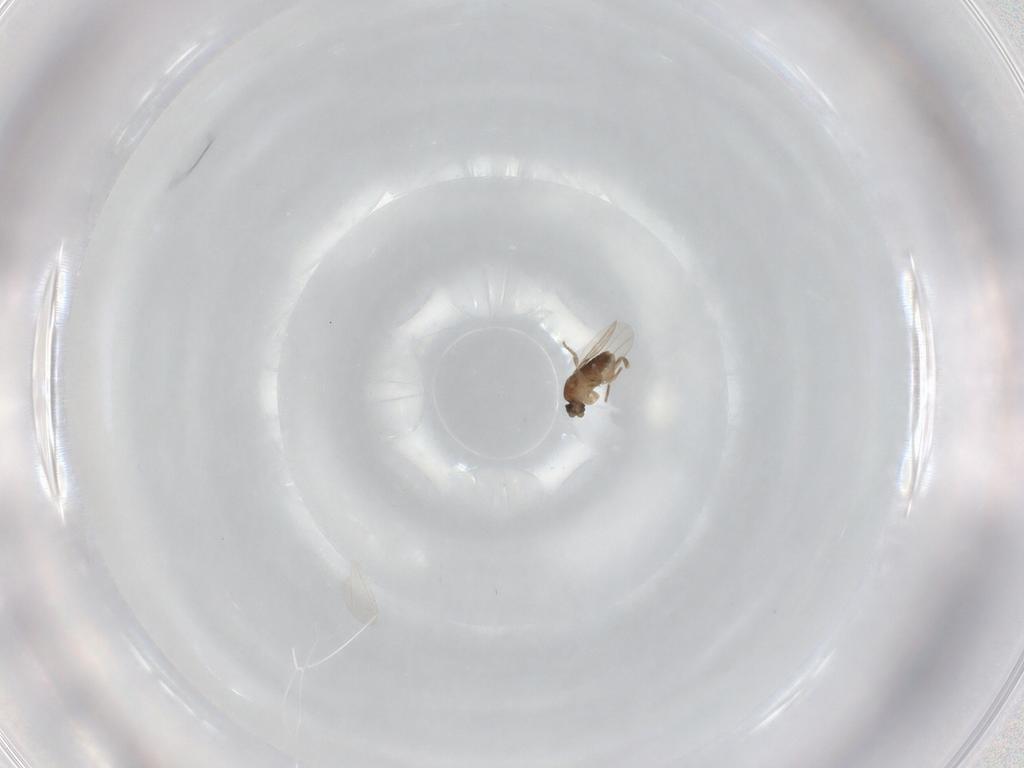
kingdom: Animalia
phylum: Arthropoda
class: Insecta
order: Diptera
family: Phoridae
